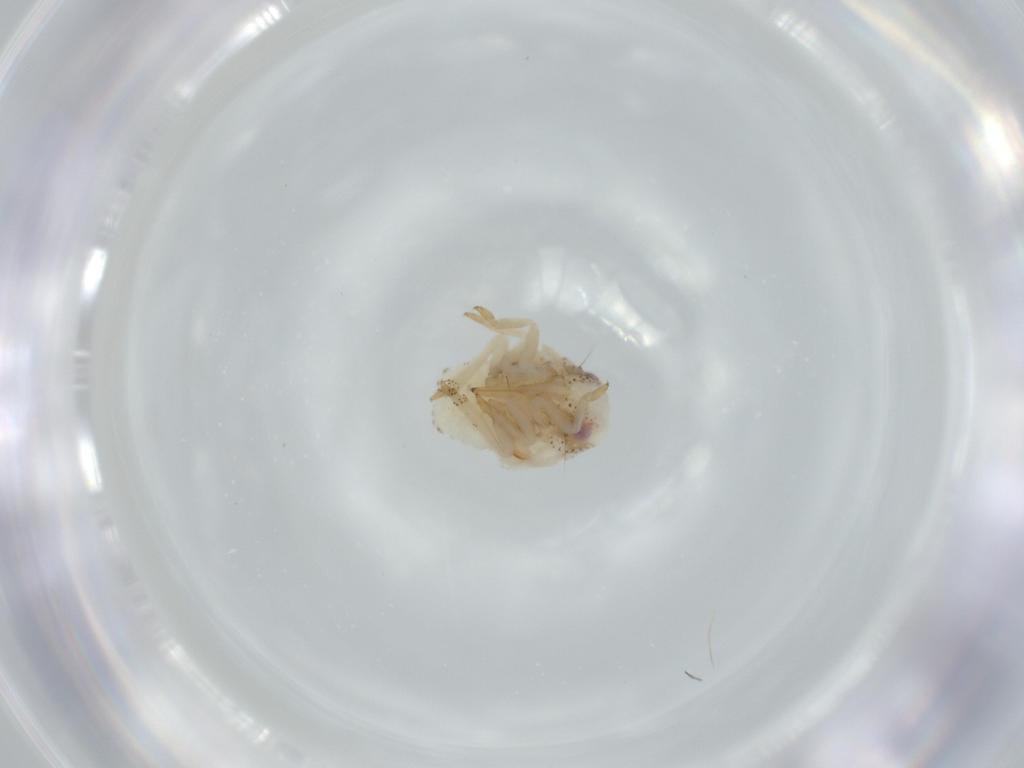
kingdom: Animalia
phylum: Arthropoda
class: Insecta
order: Hemiptera
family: Acanaloniidae
